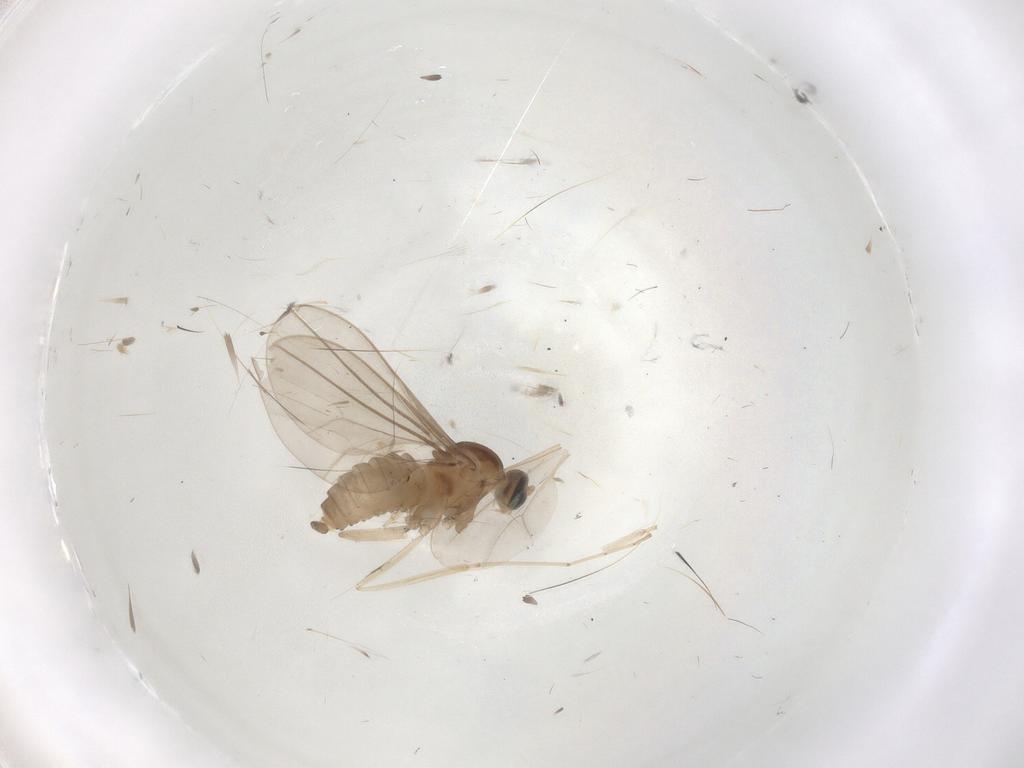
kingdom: Animalia
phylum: Arthropoda
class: Insecta
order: Diptera
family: Cecidomyiidae
